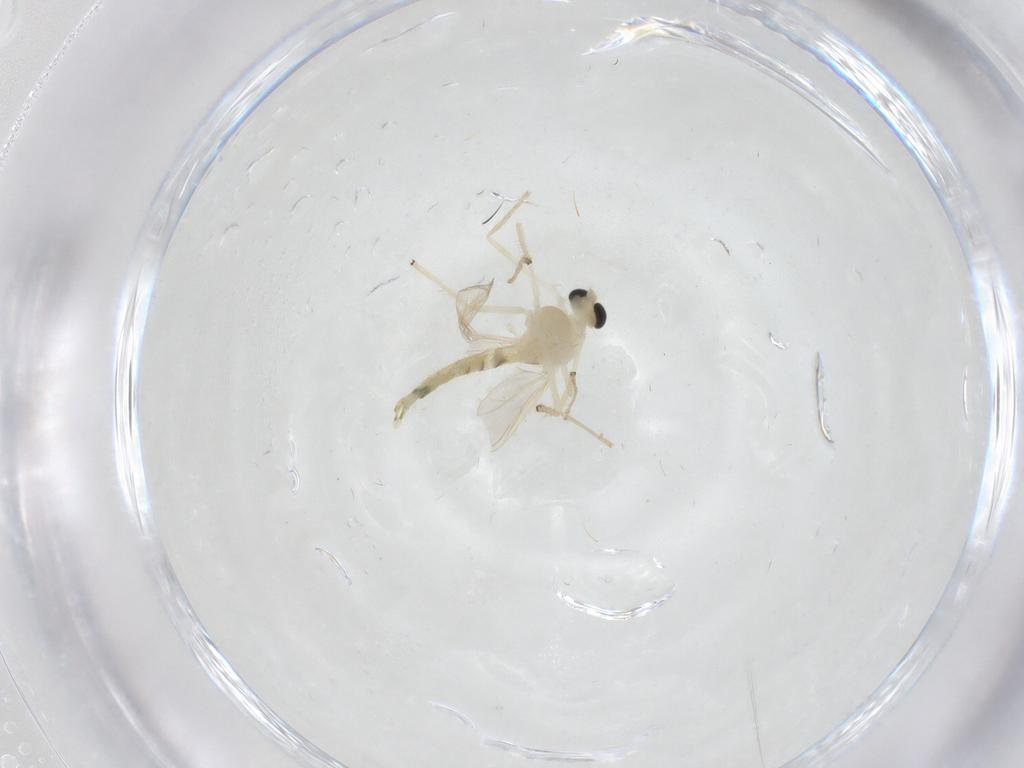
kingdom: Animalia
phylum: Arthropoda
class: Insecta
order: Diptera
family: Chironomidae
